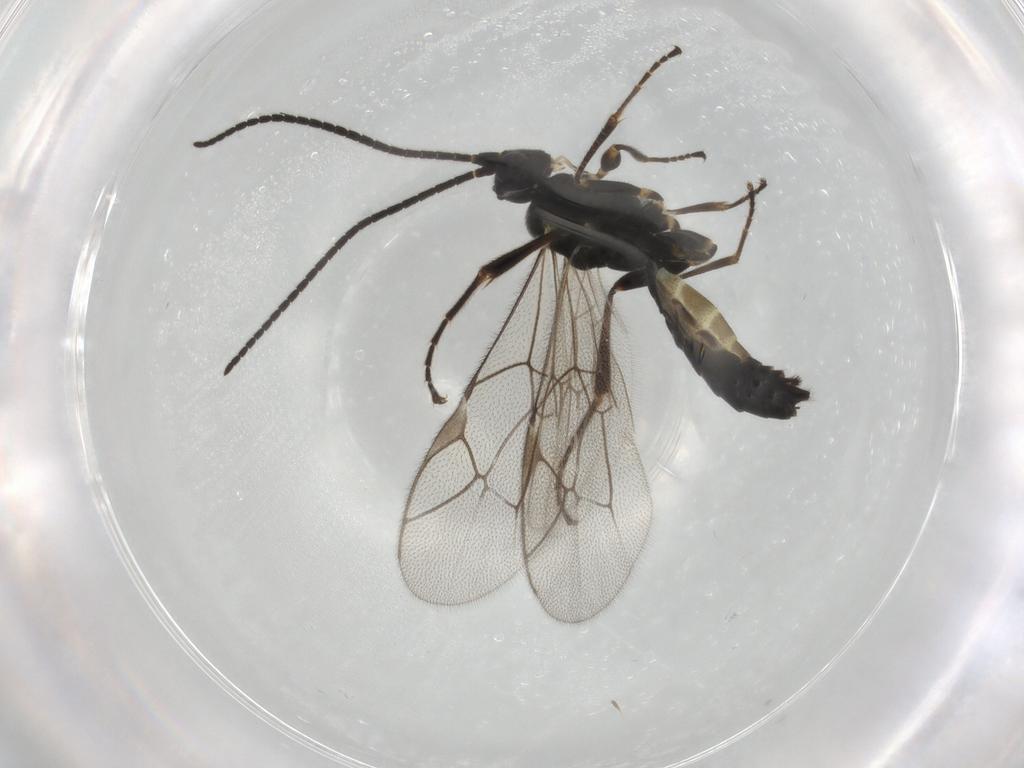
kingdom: Animalia
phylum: Arthropoda
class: Insecta
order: Hymenoptera
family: Ichneumonidae
